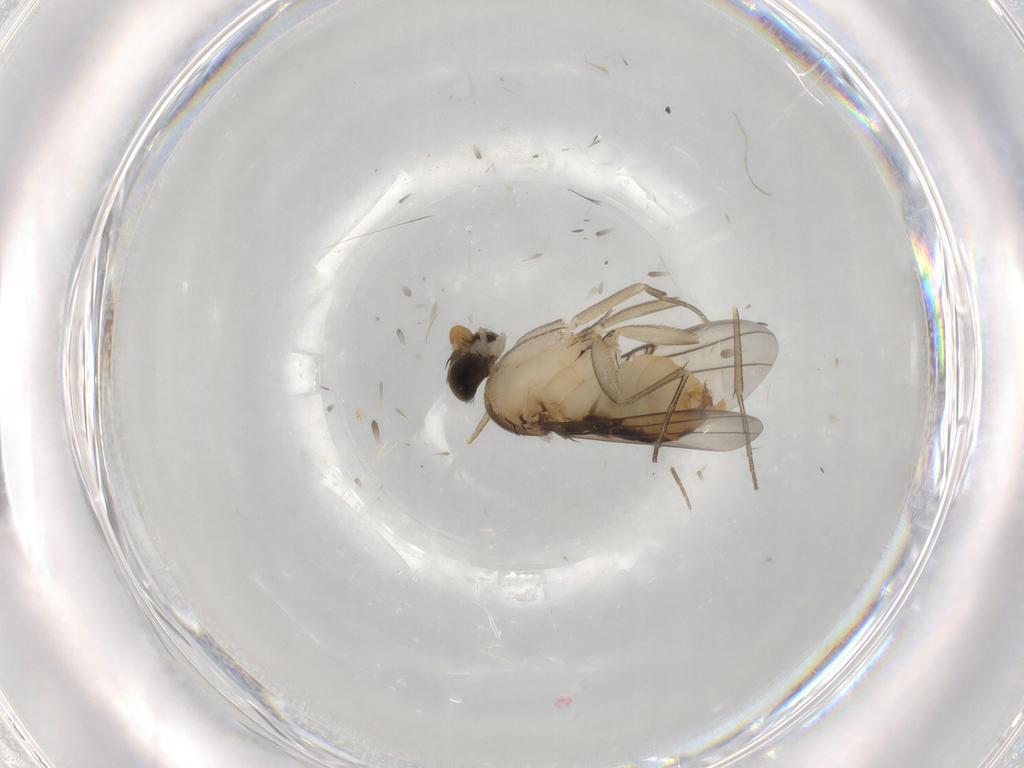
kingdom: Animalia
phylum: Arthropoda
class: Insecta
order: Diptera
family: Phoridae
